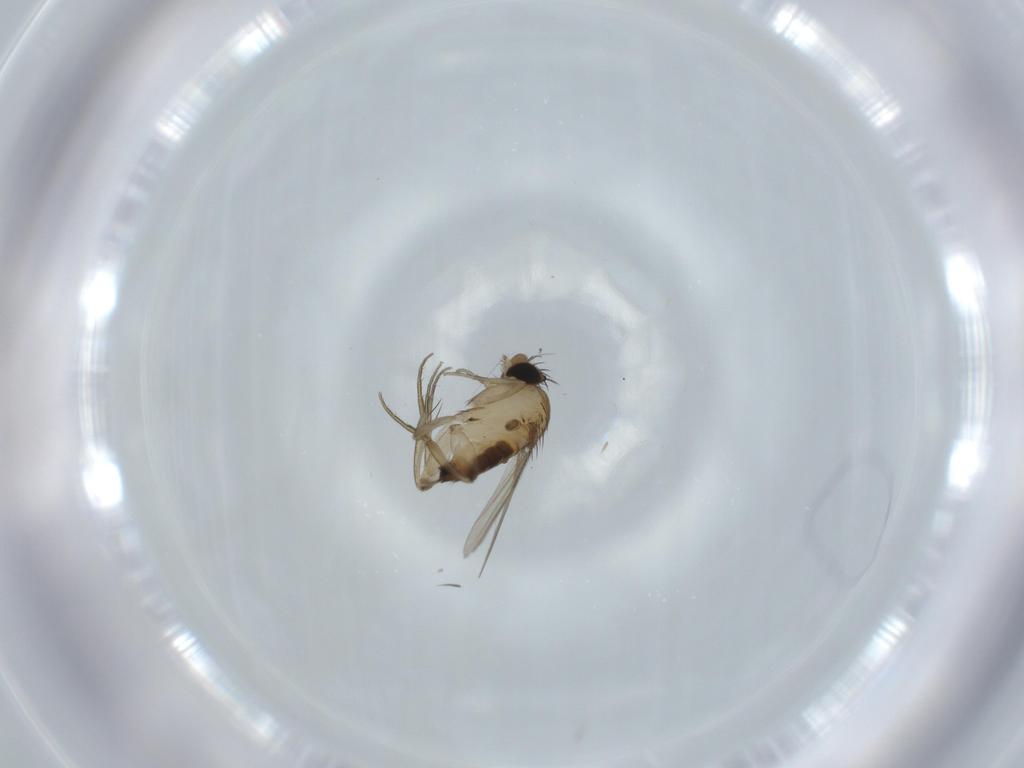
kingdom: Animalia
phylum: Arthropoda
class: Insecta
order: Diptera
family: Phoridae
